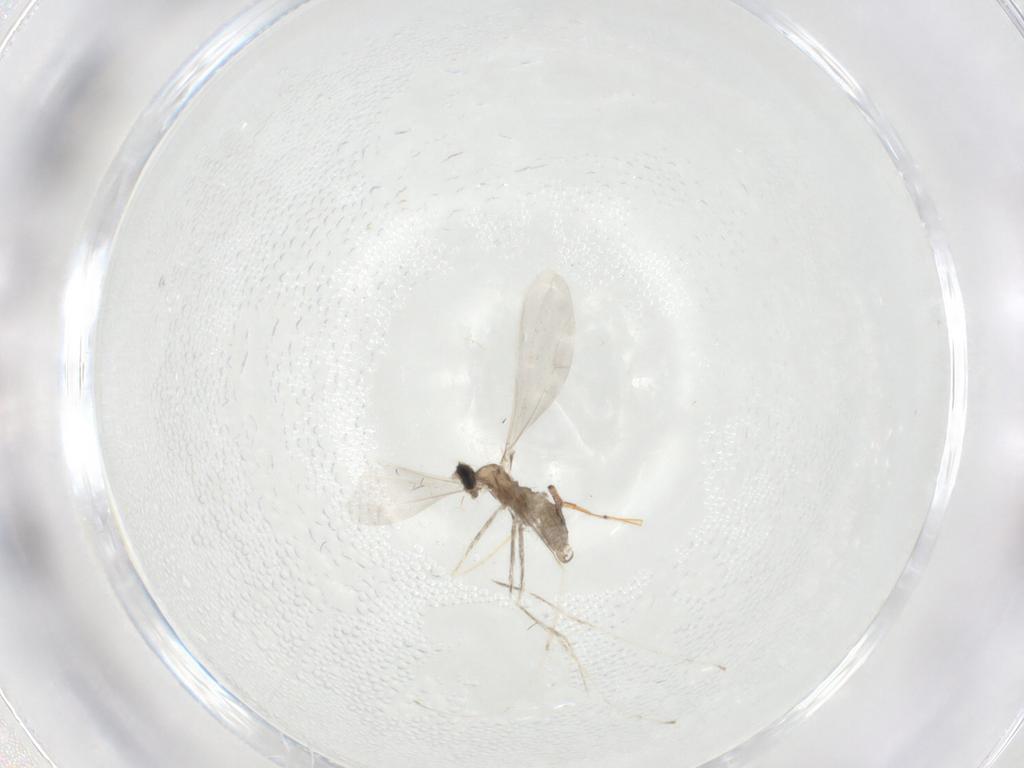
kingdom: Animalia
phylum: Arthropoda
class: Insecta
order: Diptera
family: Cecidomyiidae
